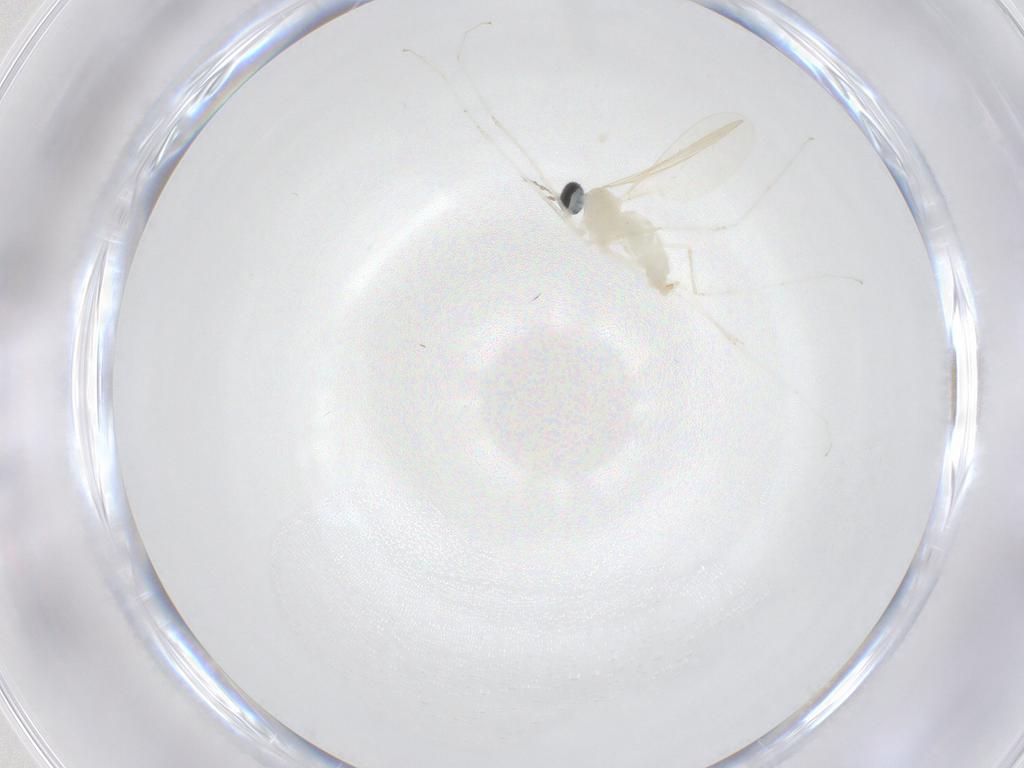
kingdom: Animalia
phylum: Arthropoda
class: Insecta
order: Diptera
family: Cecidomyiidae
